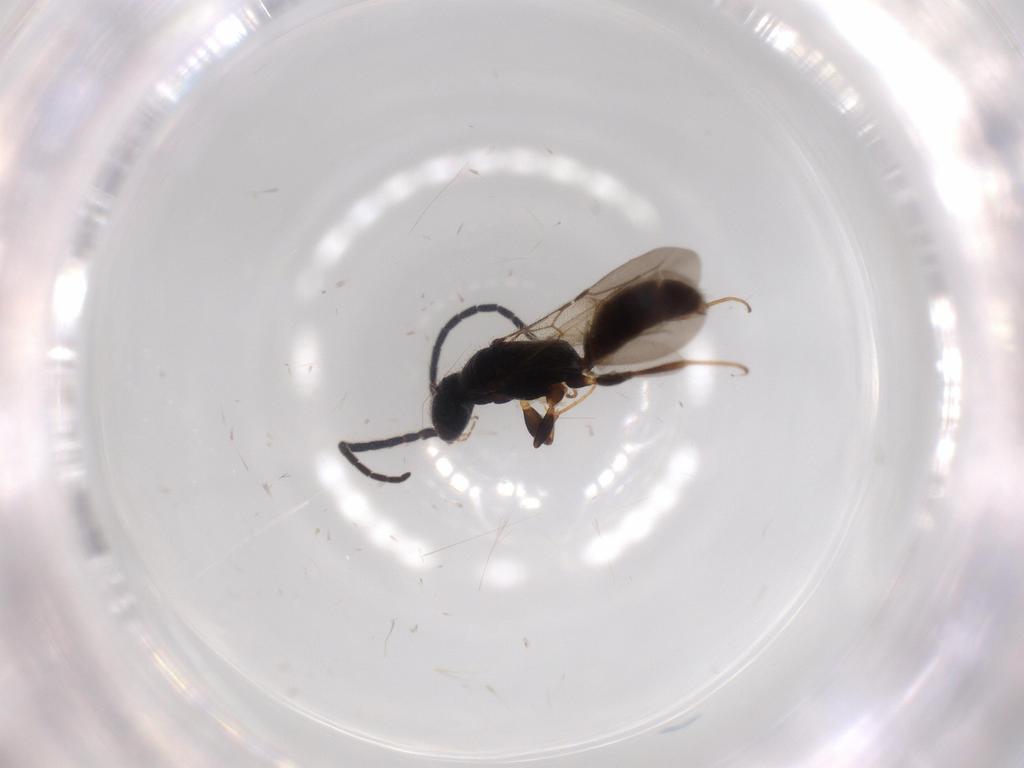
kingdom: Animalia
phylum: Arthropoda
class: Insecta
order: Hymenoptera
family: Bethylidae
